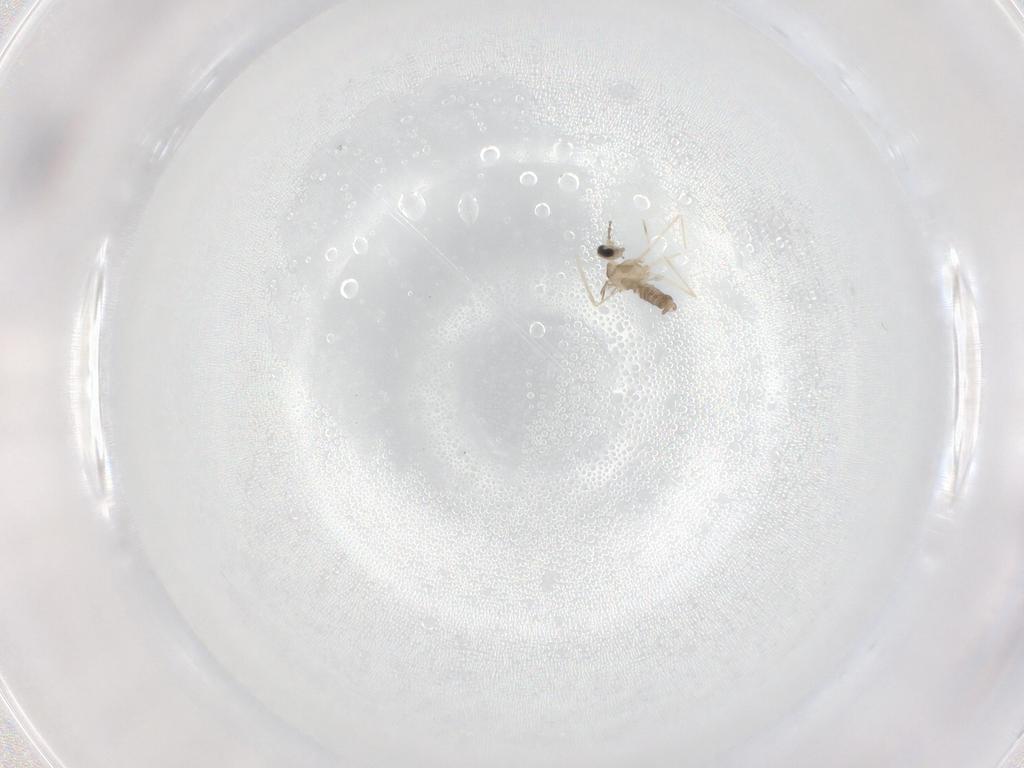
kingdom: Animalia
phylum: Arthropoda
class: Insecta
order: Diptera
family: Cecidomyiidae
